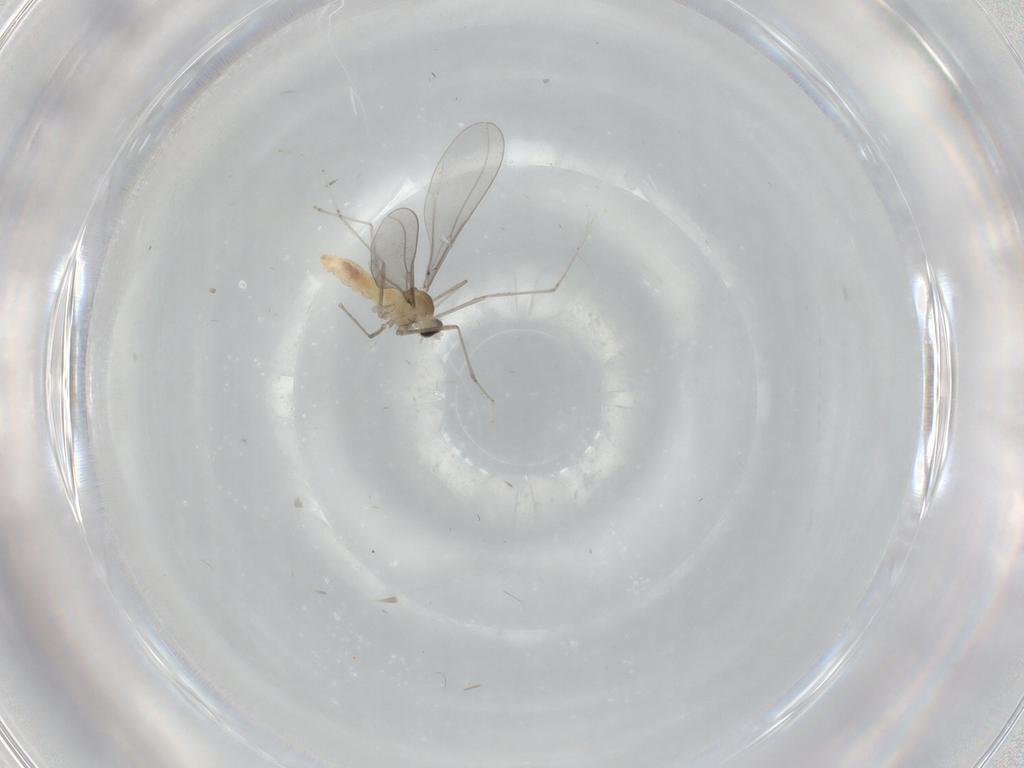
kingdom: Animalia
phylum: Arthropoda
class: Insecta
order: Diptera
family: Cecidomyiidae
